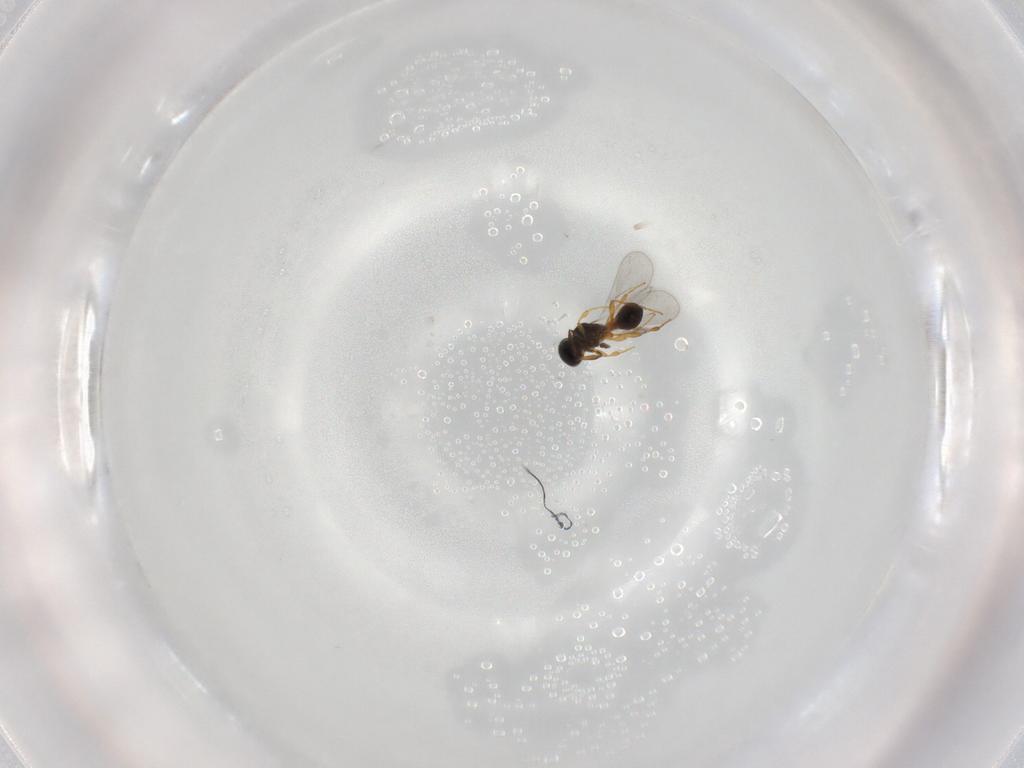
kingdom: Animalia
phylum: Arthropoda
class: Insecta
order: Hymenoptera
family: Platygastridae
